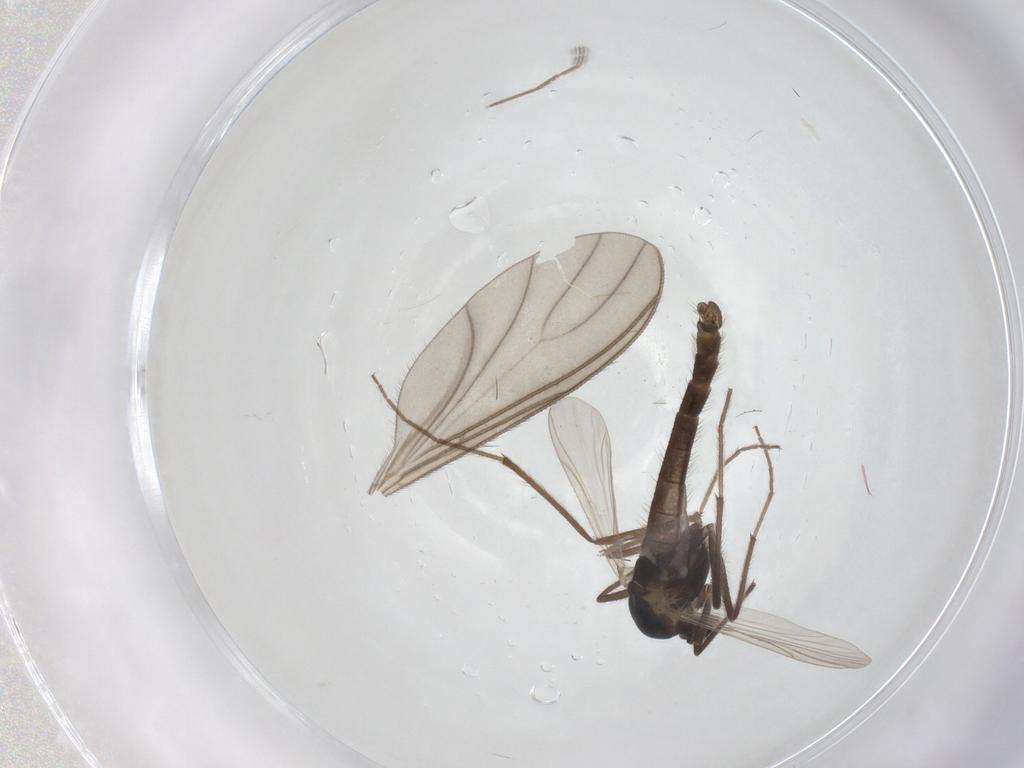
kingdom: Animalia
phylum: Arthropoda
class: Insecta
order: Diptera
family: Chironomidae
